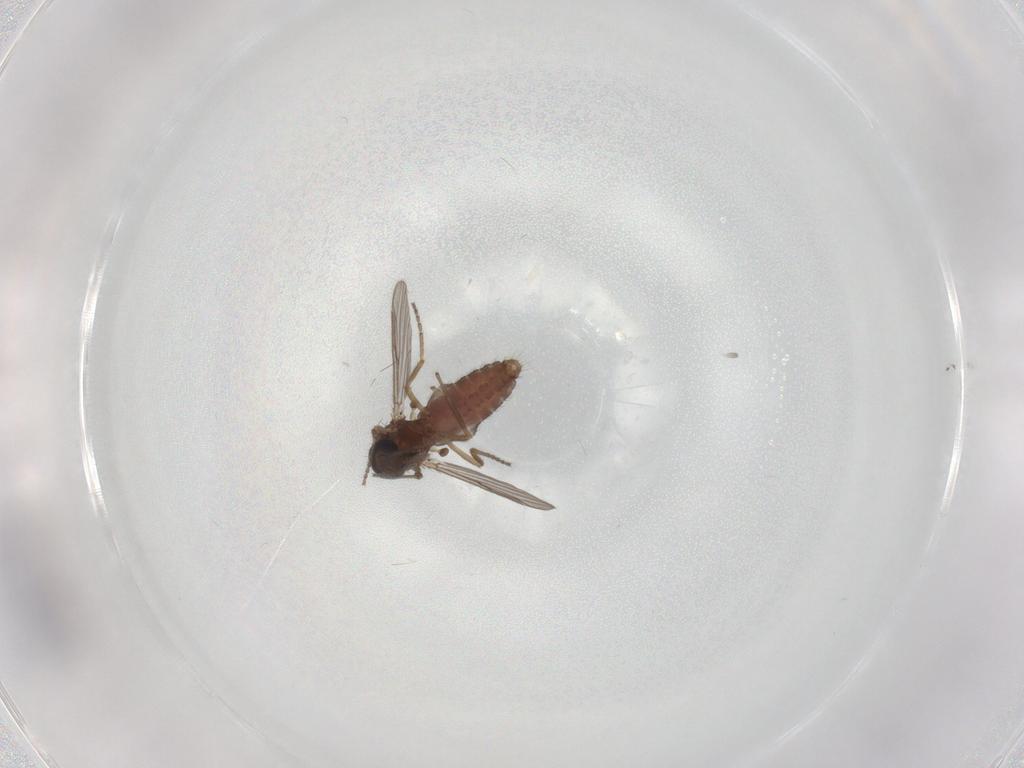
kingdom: Animalia
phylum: Arthropoda
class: Insecta
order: Diptera
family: Ceratopogonidae
